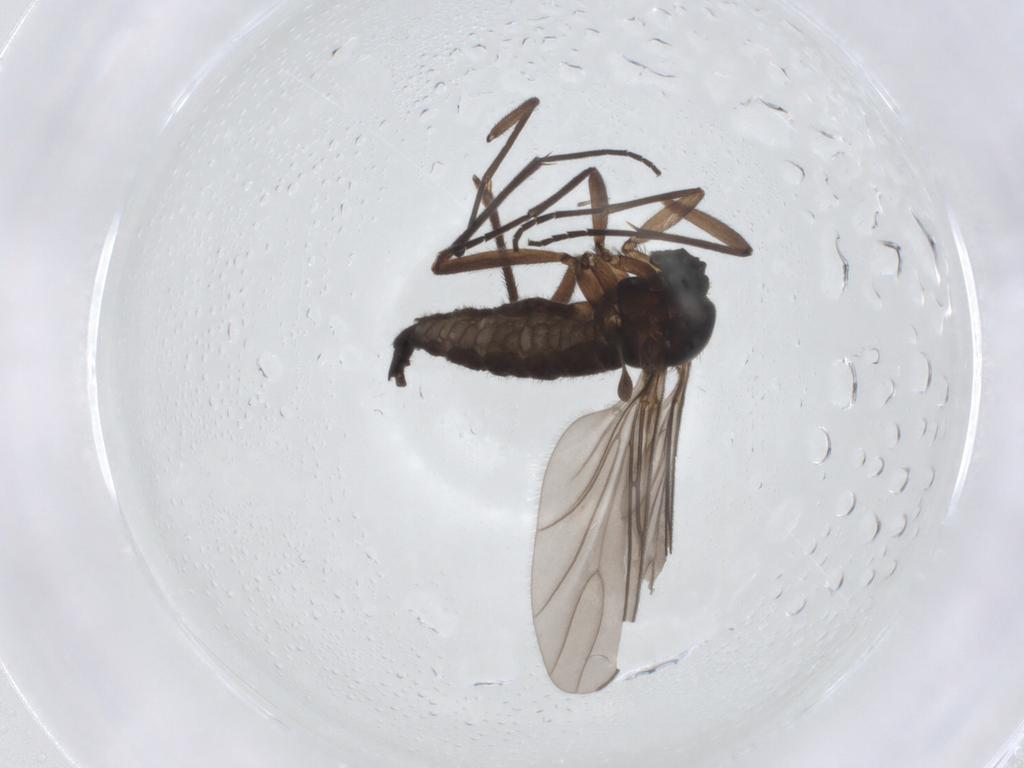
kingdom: Animalia
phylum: Arthropoda
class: Insecta
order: Diptera
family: Sciaridae
